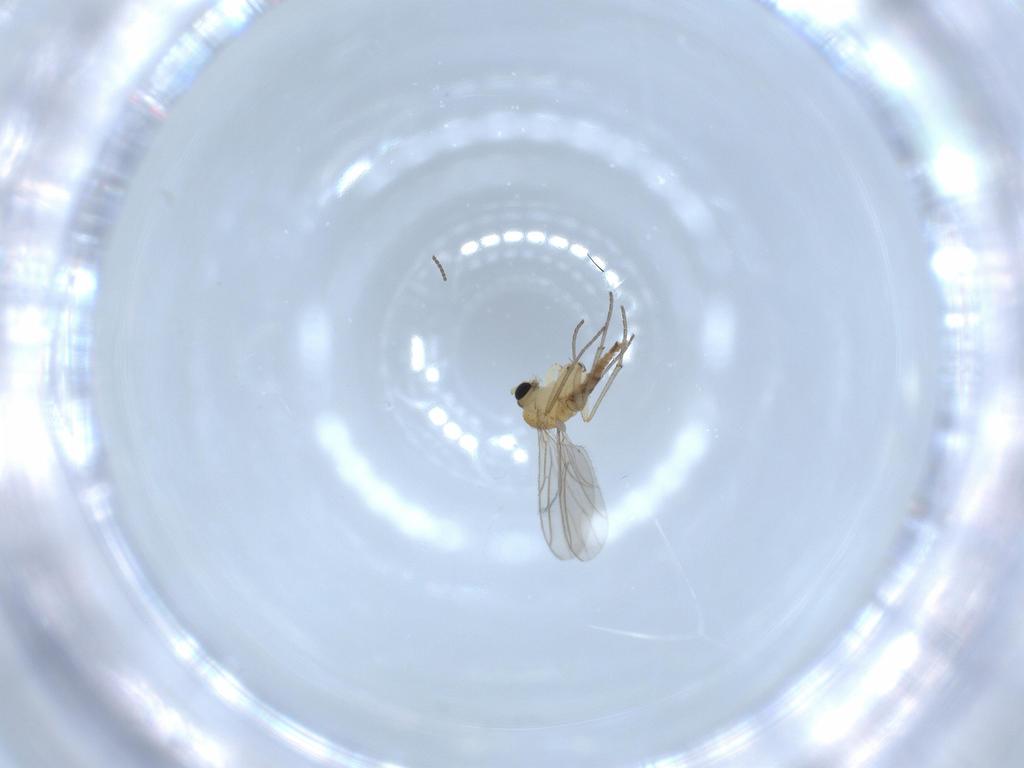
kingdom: Animalia
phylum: Arthropoda
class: Insecta
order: Diptera
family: Sciaridae
